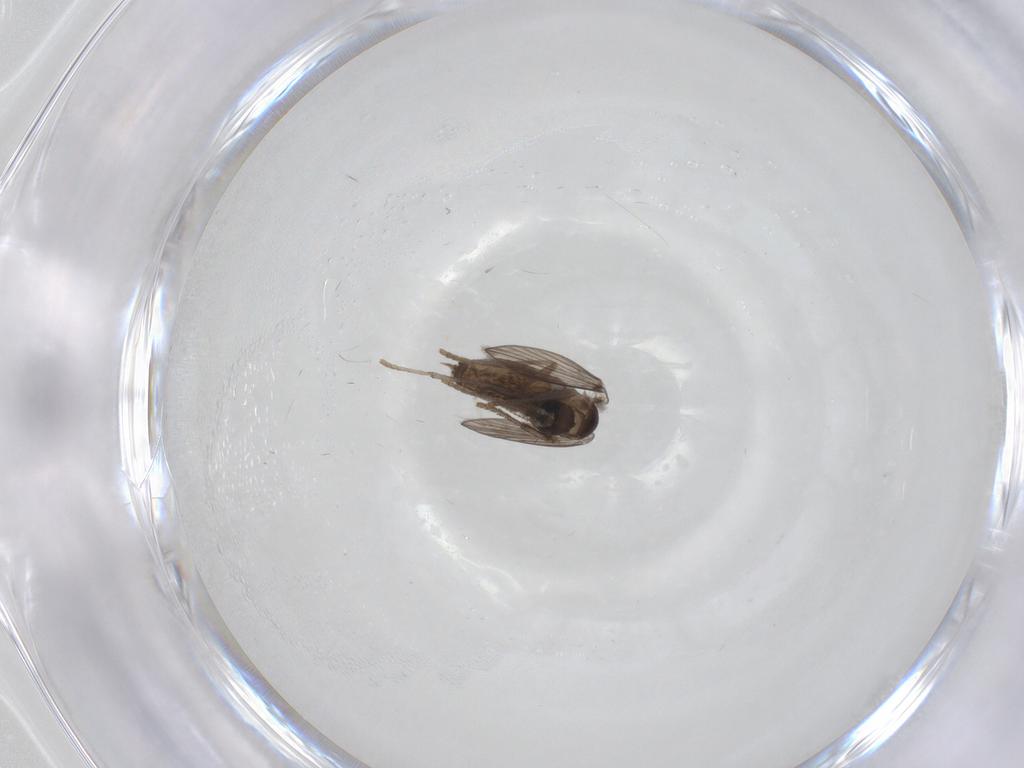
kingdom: Animalia
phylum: Arthropoda
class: Insecta
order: Diptera
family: Psychodidae
